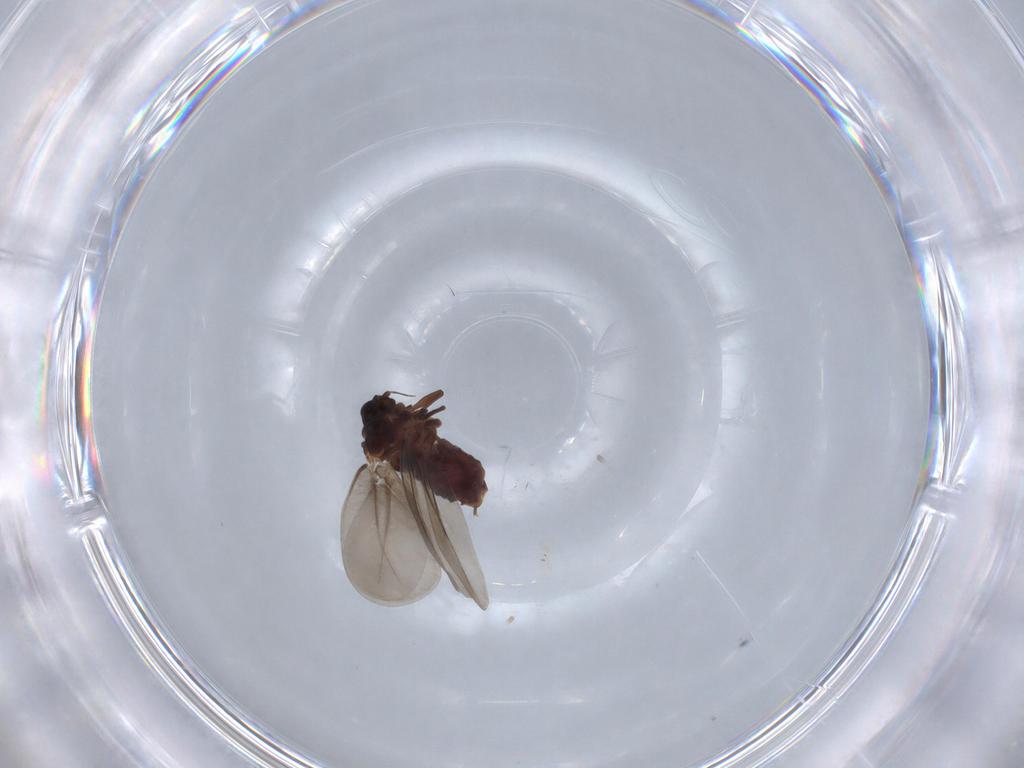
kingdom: Animalia
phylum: Arthropoda
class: Insecta
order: Hemiptera
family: Aleyrodidae
